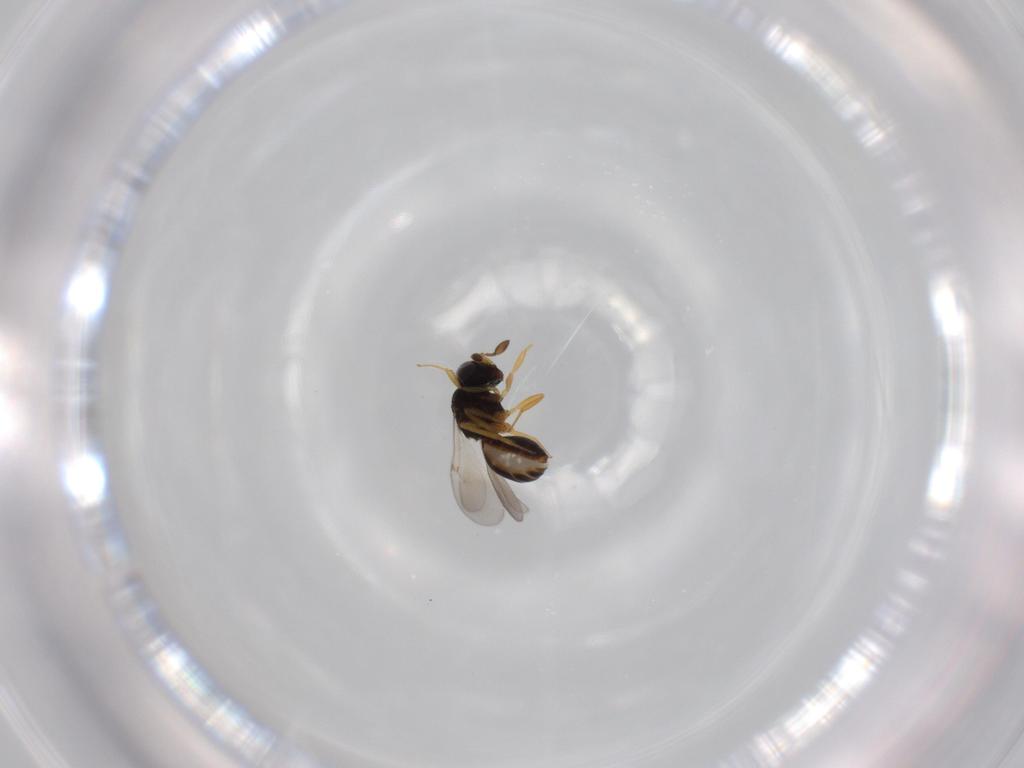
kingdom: Animalia
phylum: Arthropoda
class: Insecta
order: Hymenoptera
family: Scelionidae
